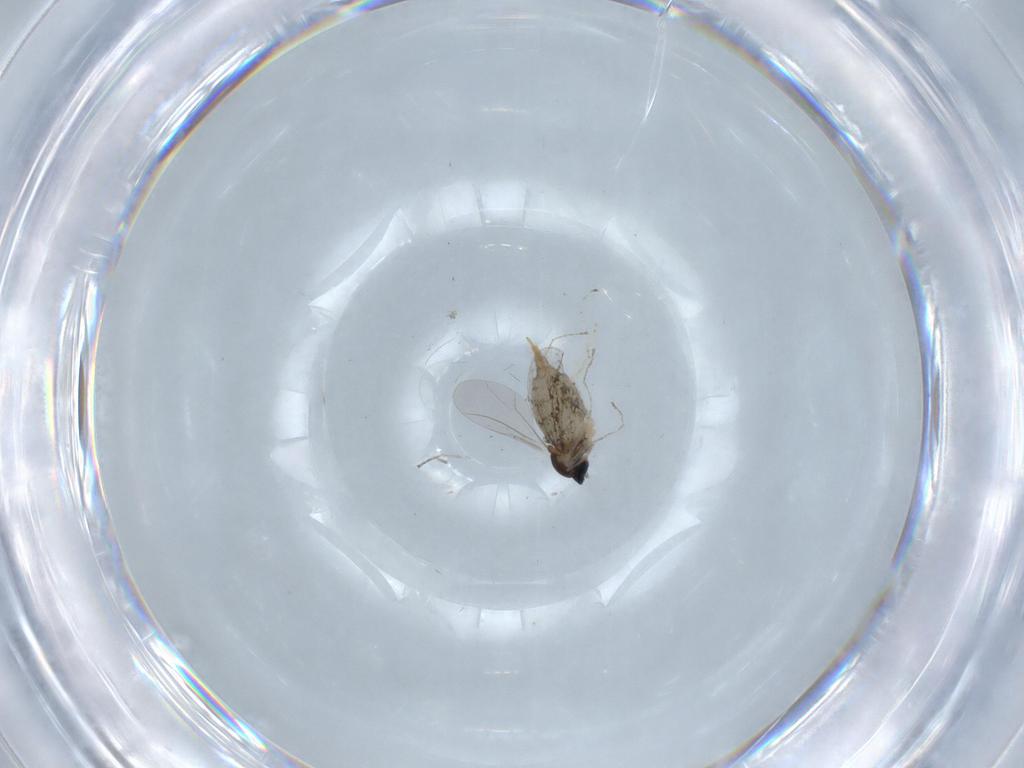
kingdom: Animalia
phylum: Arthropoda
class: Insecta
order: Diptera
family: Cecidomyiidae
